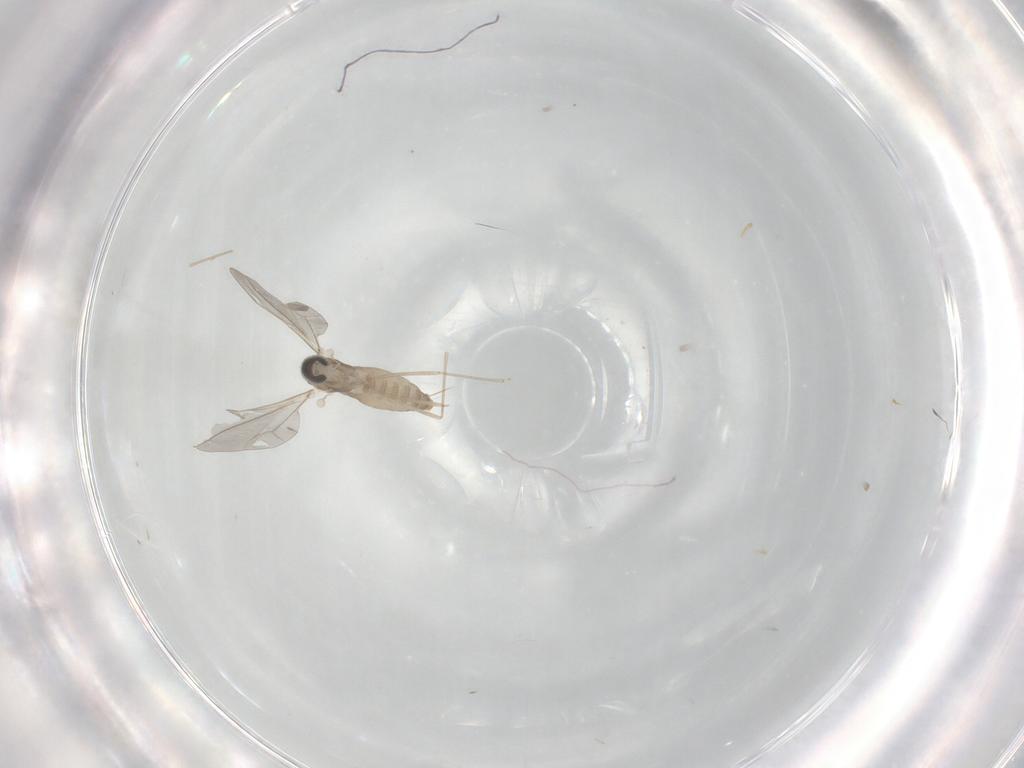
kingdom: Animalia
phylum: Arthropoda
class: Insecta
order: Diptera
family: Cecidomyiidae
